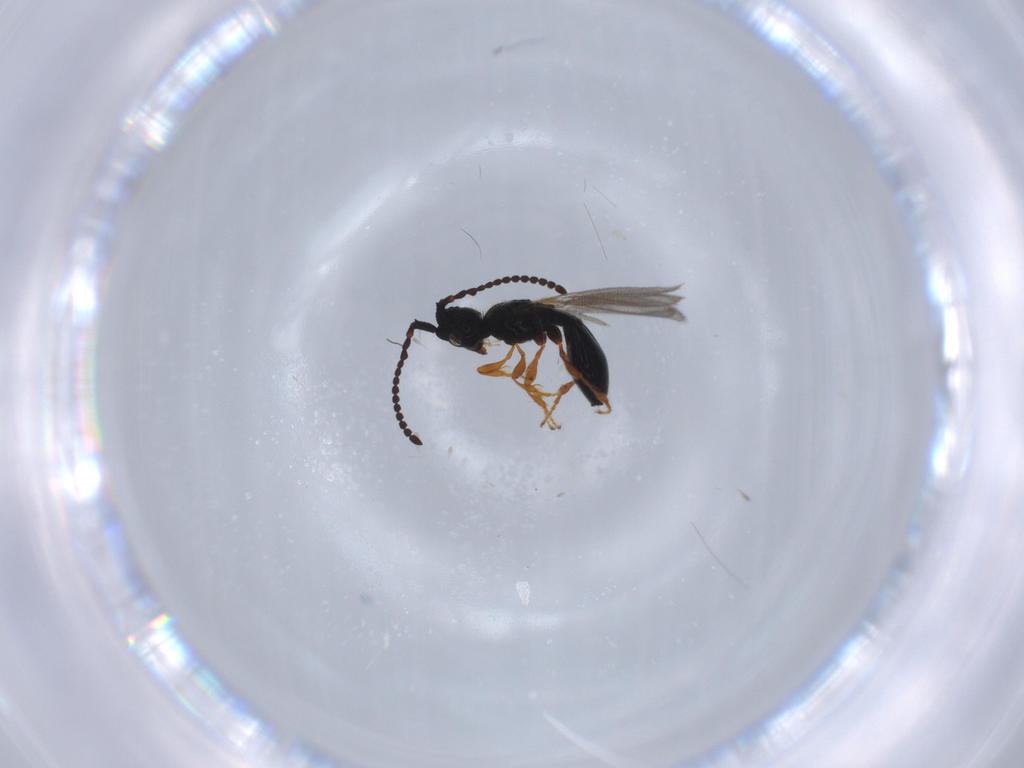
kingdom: Animalia
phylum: Arthropoda
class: Insecta
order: Hymenoptera
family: Diapriidae
